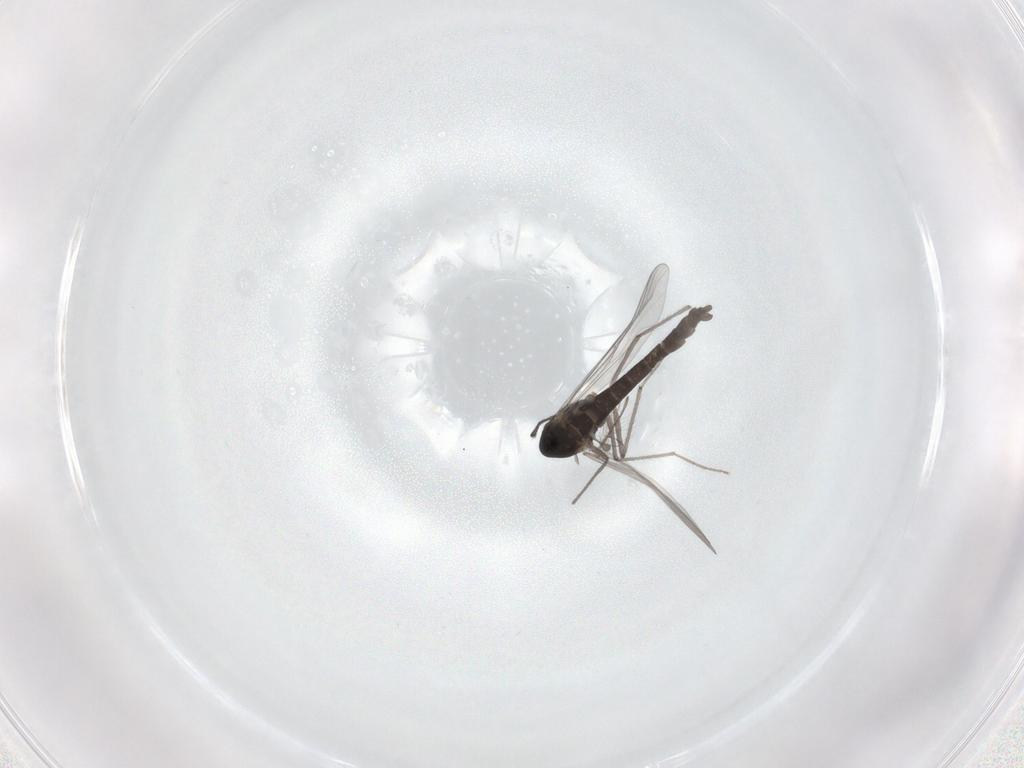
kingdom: Animalia
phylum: Arthropoda
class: Insecta
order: Diptera
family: Chironomidae
